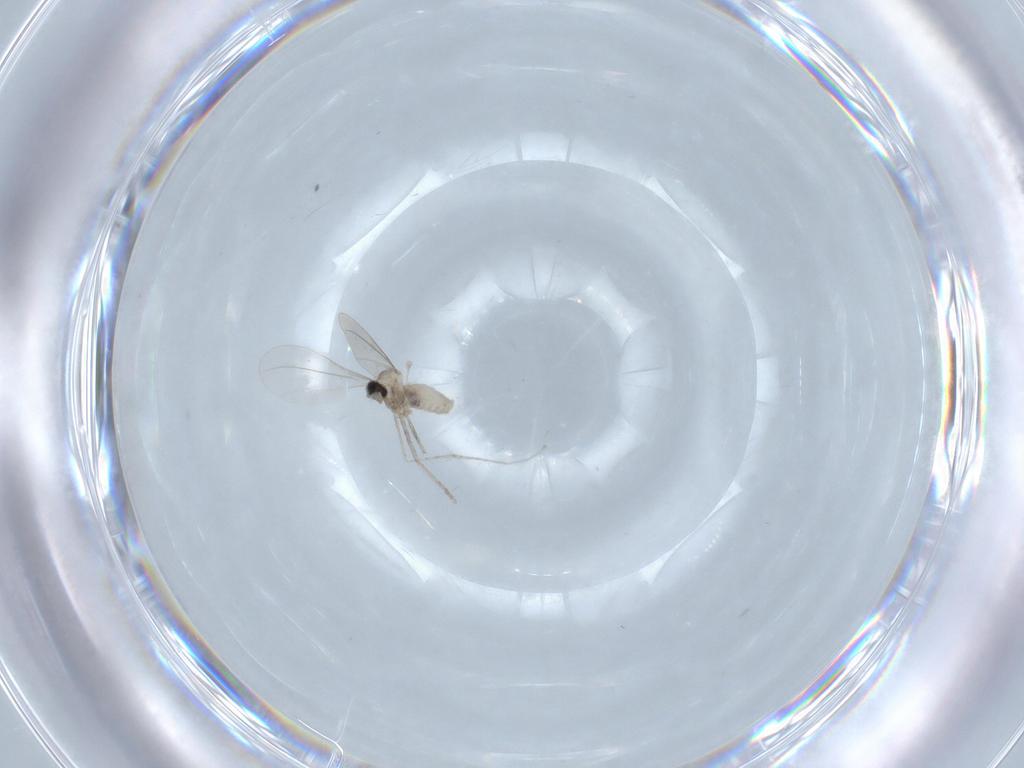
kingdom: Animalia
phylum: Arthropoda
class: Insecta
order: Diptera
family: Cecidomyiidae
